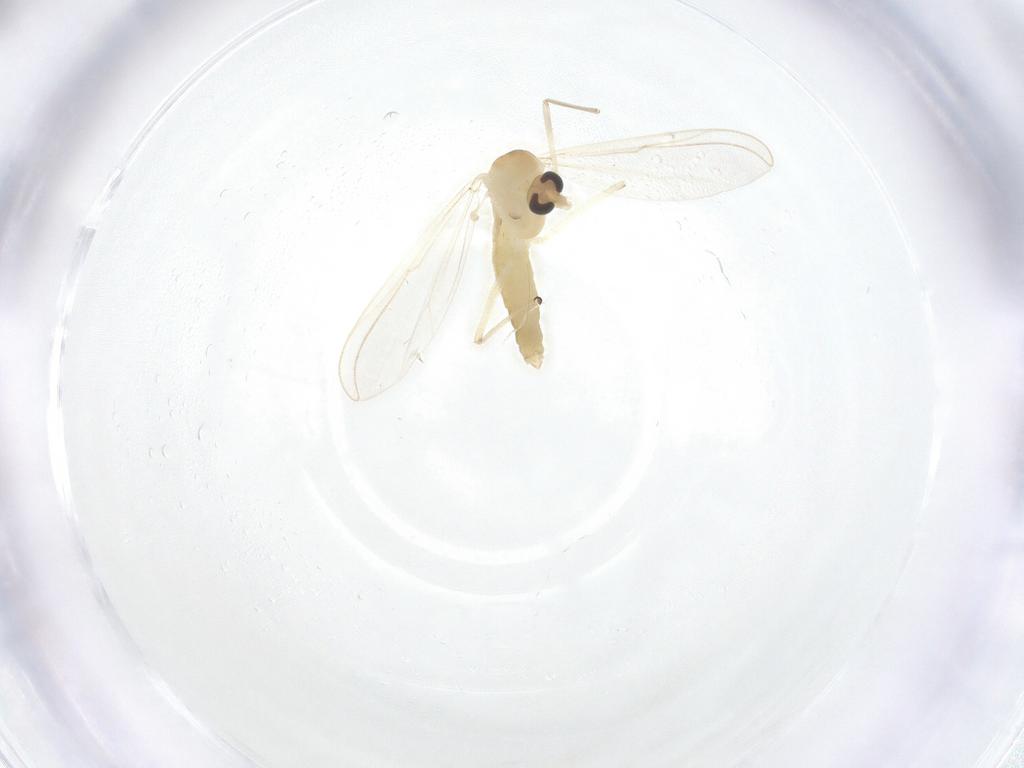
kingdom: Animalia
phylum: Arthropoda
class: Insecta
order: Diptera
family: Chironomidae
